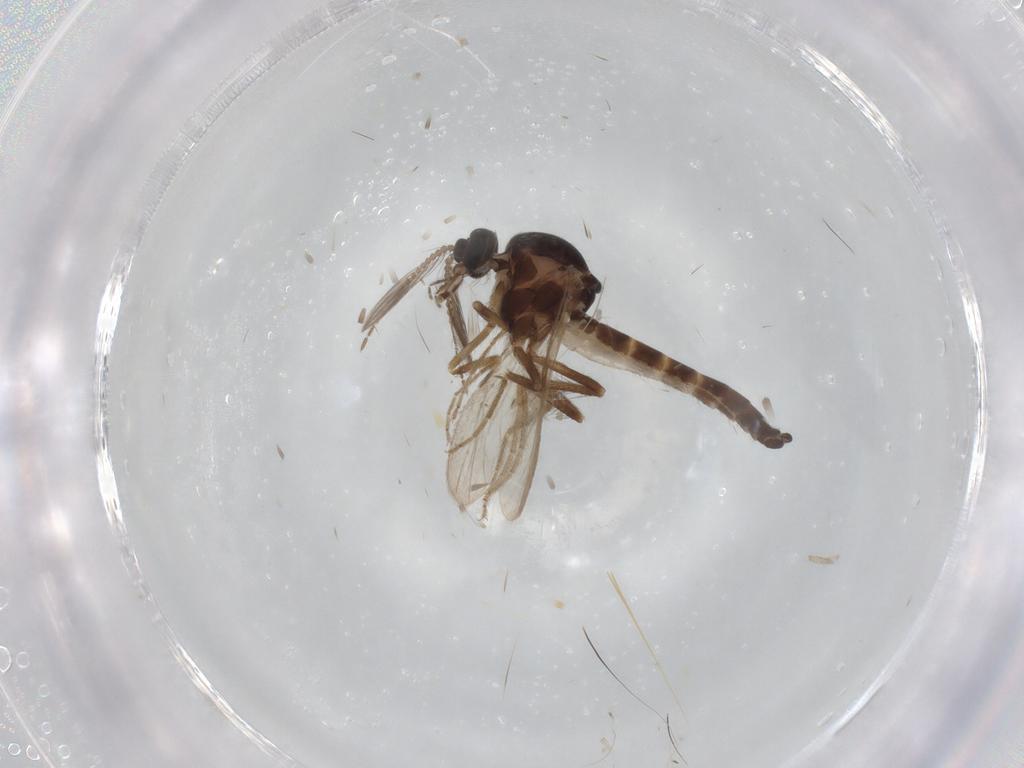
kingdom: Animalia
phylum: Arthropoda
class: Insecta
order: Diptera
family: Ceratopogonidae
